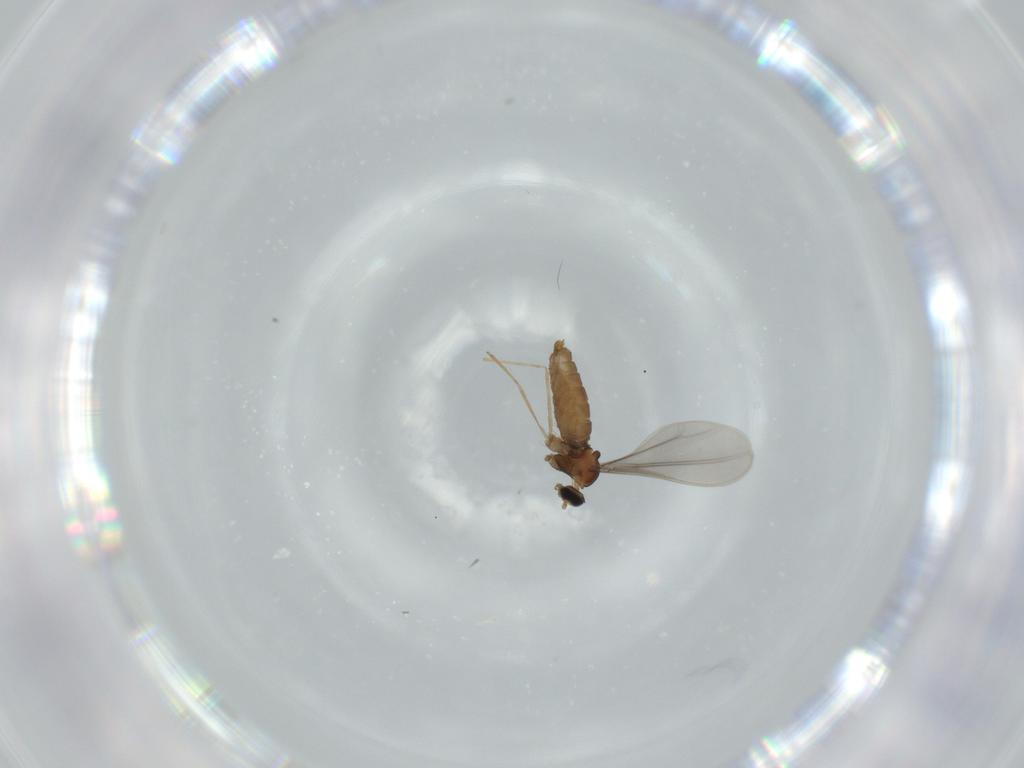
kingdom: Animalia
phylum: Arthropoda
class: Insecta
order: Diptera
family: Cecidomyiidae
